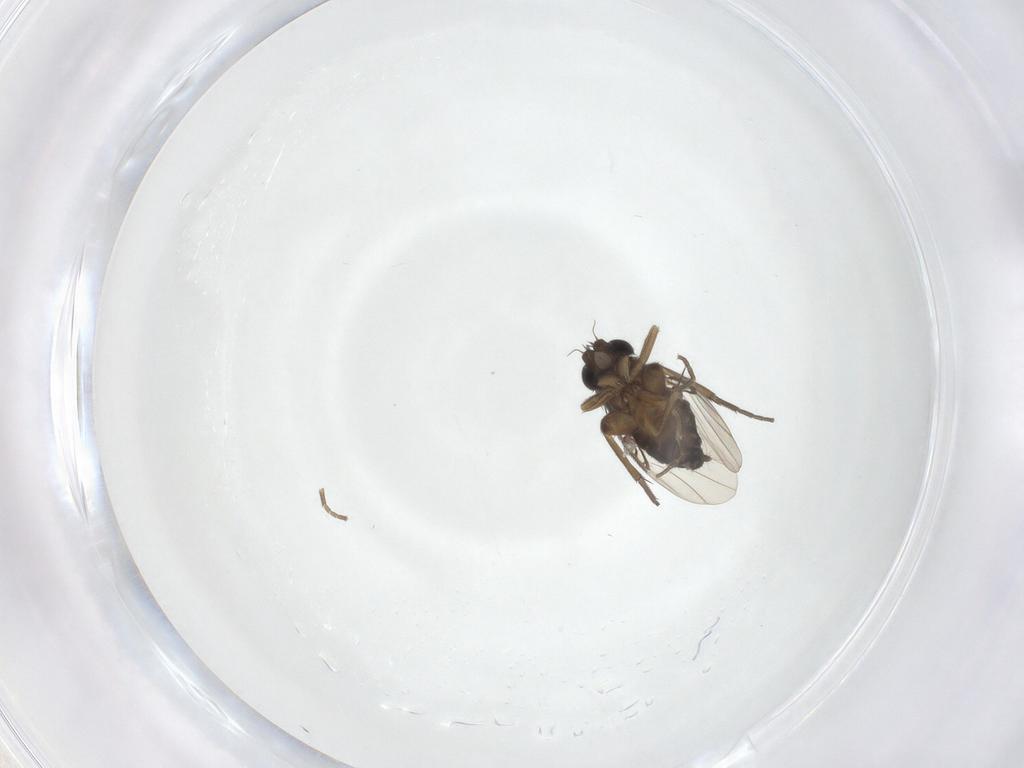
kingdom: Animalia
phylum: Arthropoda
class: Insecta
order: Diptera
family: Phoridae
